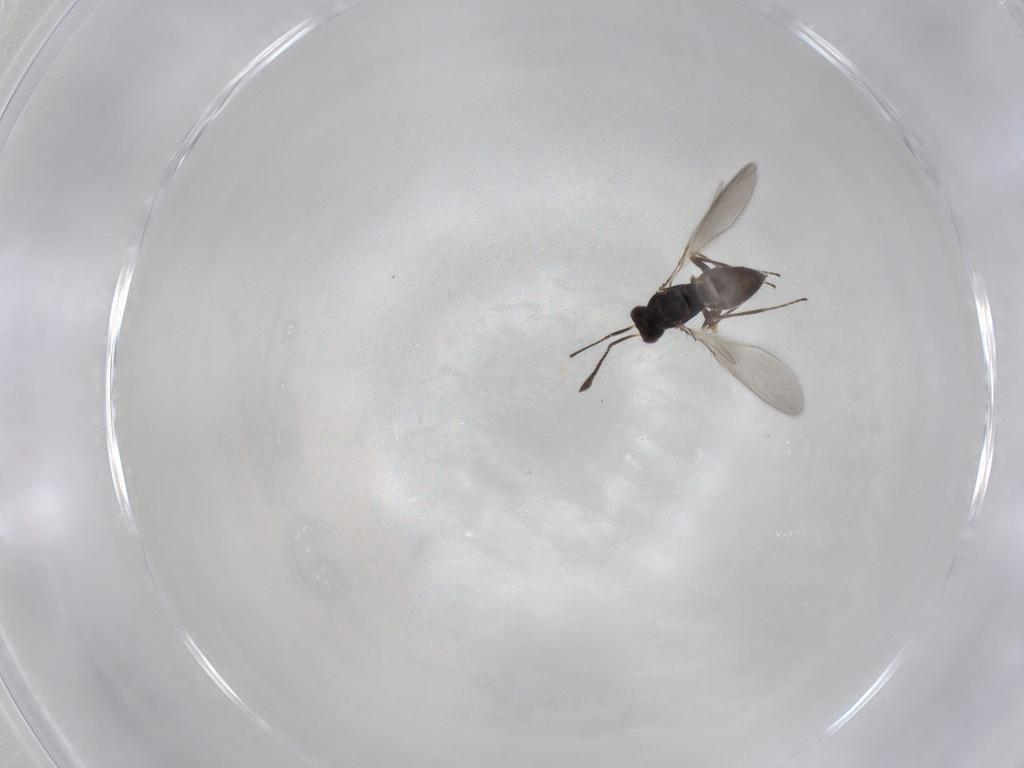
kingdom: Animalia
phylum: Arthropoda
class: Insecta
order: Hymenoptera
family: Mymaridae
